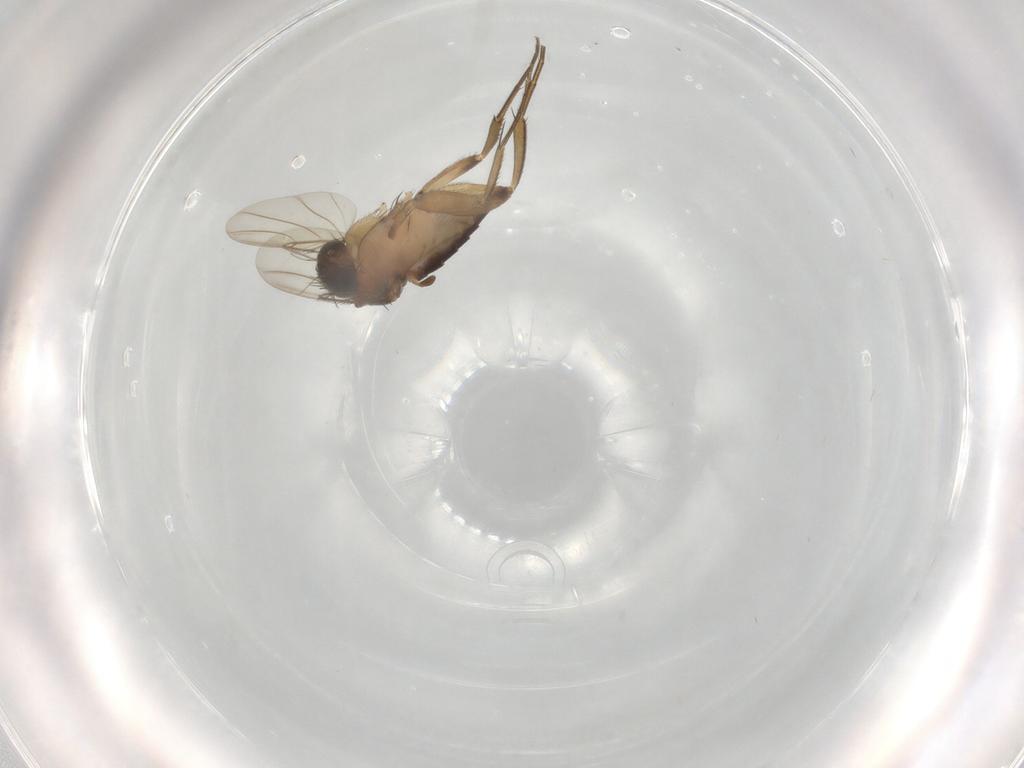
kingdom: Animalia
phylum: Arthropoda
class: Insecta
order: Diptera
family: Phoridae
